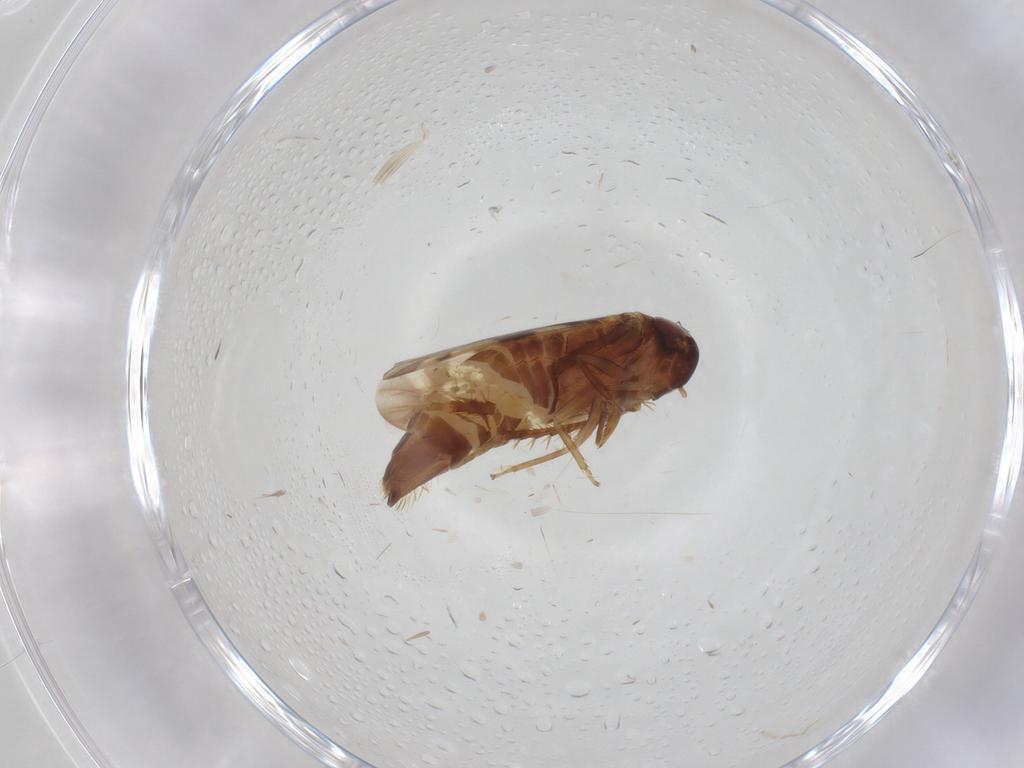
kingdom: Animalia
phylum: Arthropoda
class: Insecta
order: Hemiptera
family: Cicadellidae
